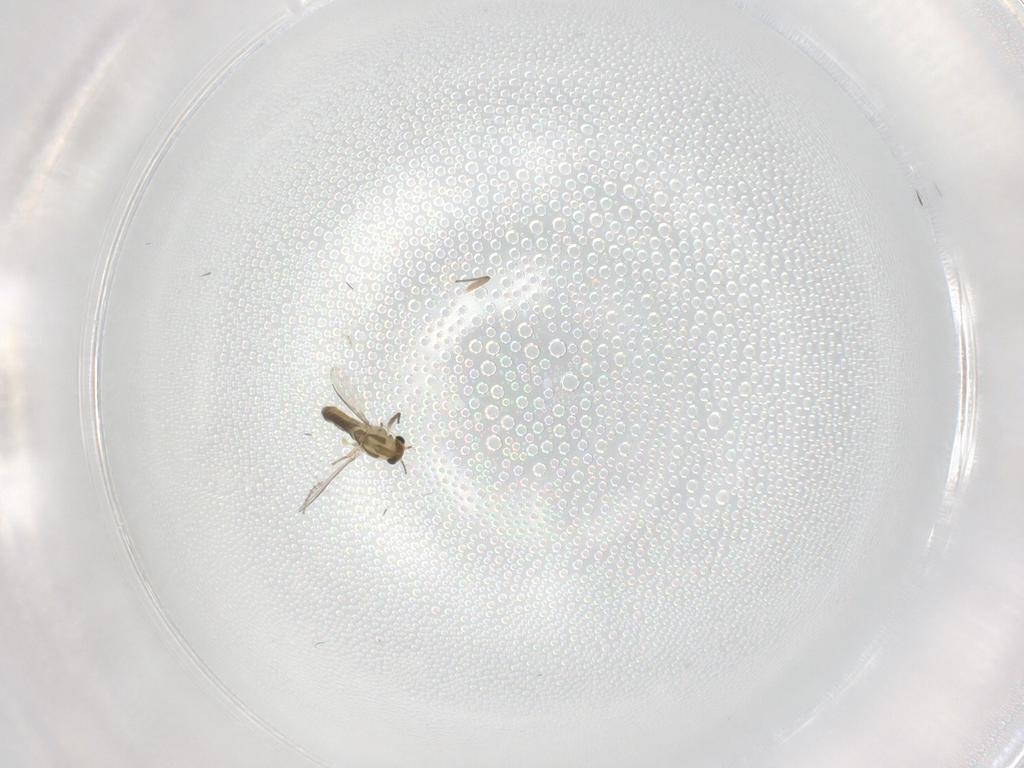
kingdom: Animalia
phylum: Arthropoda
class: Insecta
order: Diptera
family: Chironomidae
